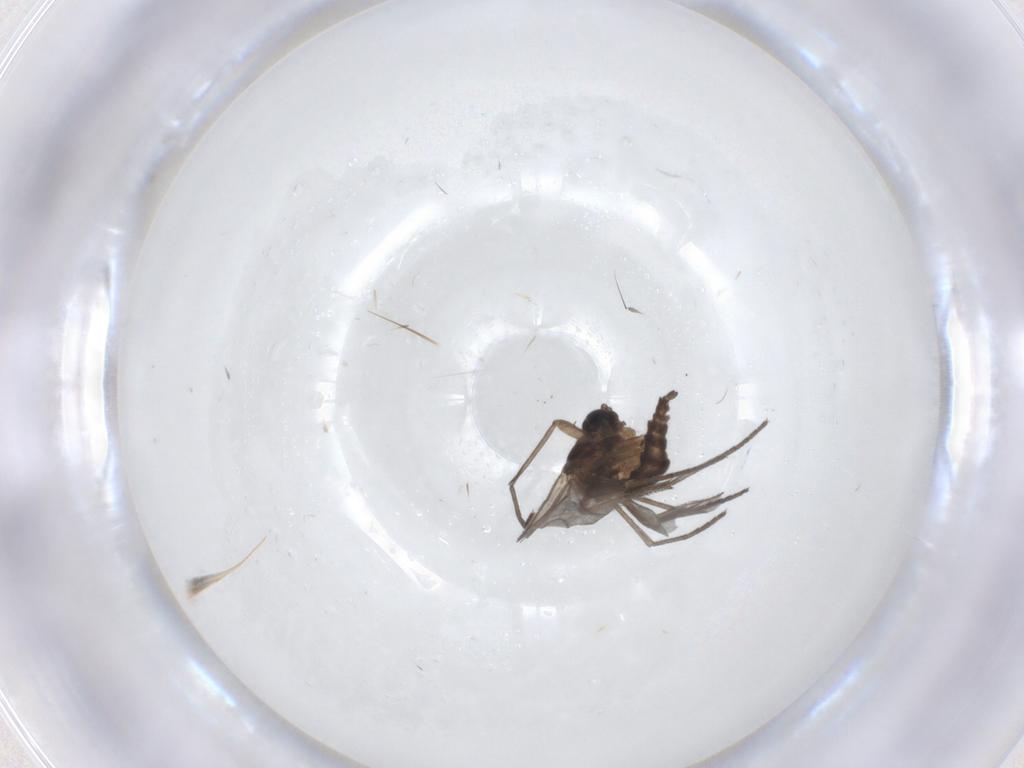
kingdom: Animalia
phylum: Arthropoda
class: Insecta
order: Diptera
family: Sciaridae
